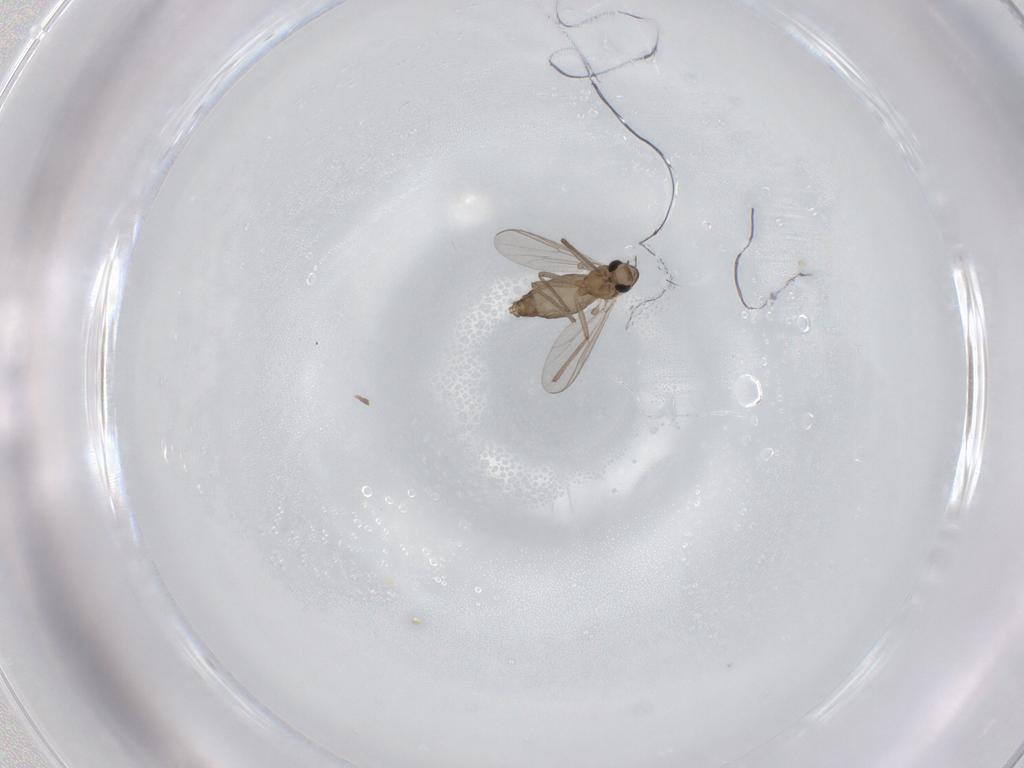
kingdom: Animalia
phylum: Arthropoda
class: Insecta
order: Diptera
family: Chironomidae
